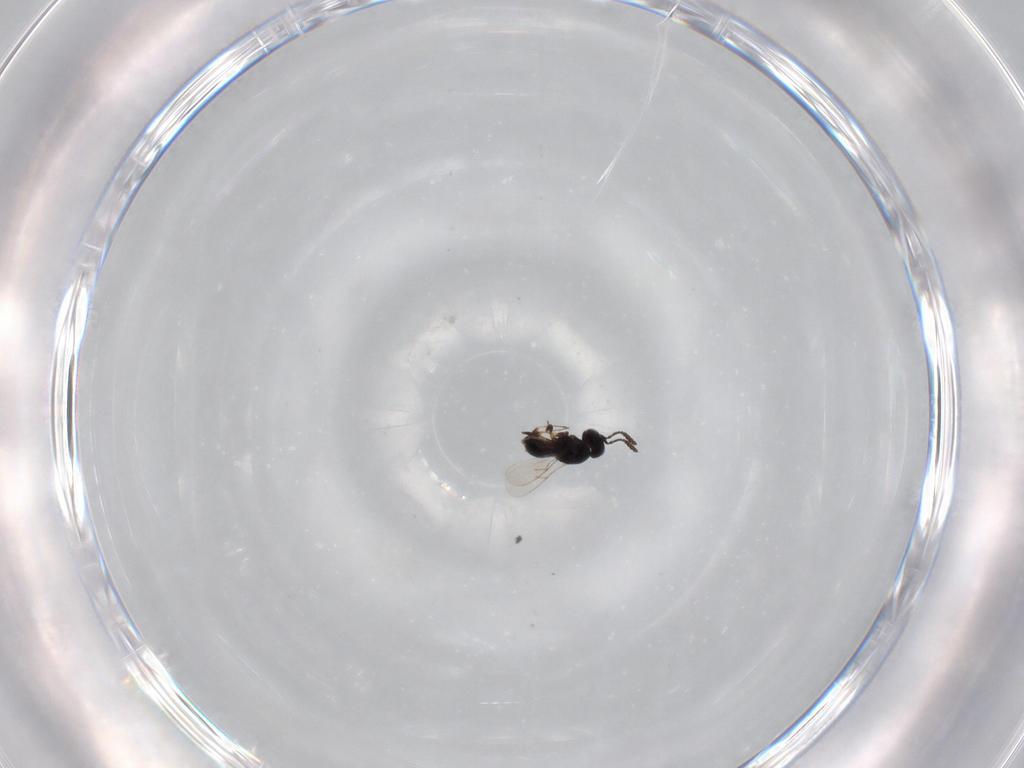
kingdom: Animalia
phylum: Arthropoda
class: Insecta
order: Hymenoptera
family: Scelionidae
